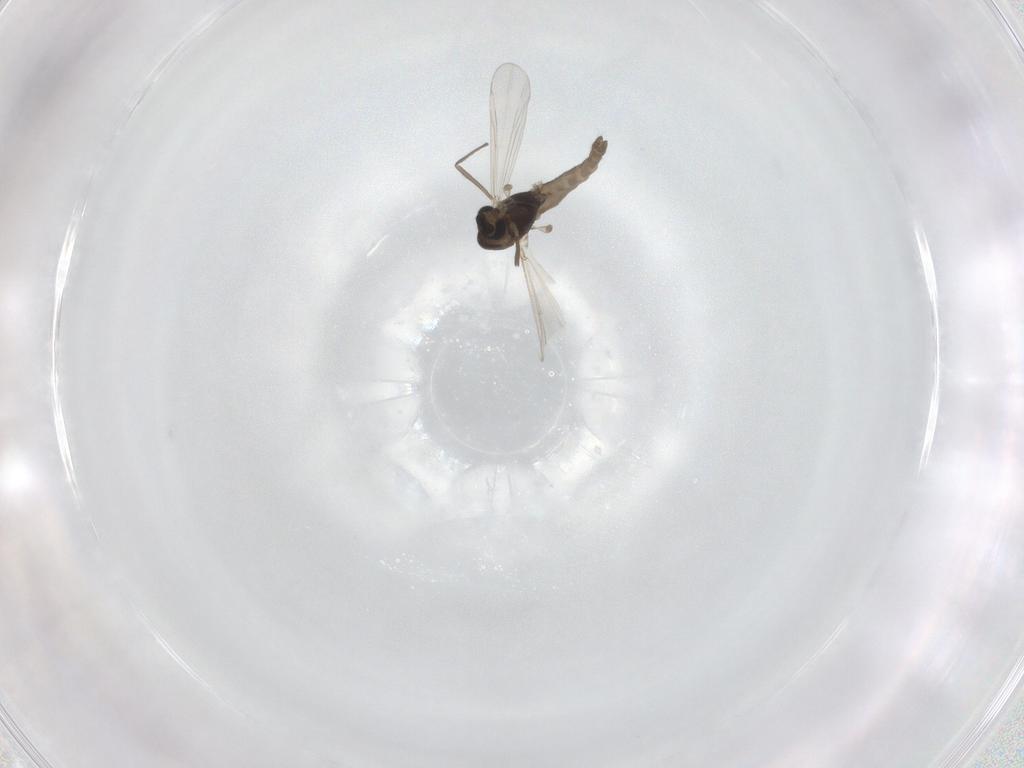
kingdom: Animalia
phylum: Arthropoda
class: Insecta
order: Diptera
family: Chironomidae
